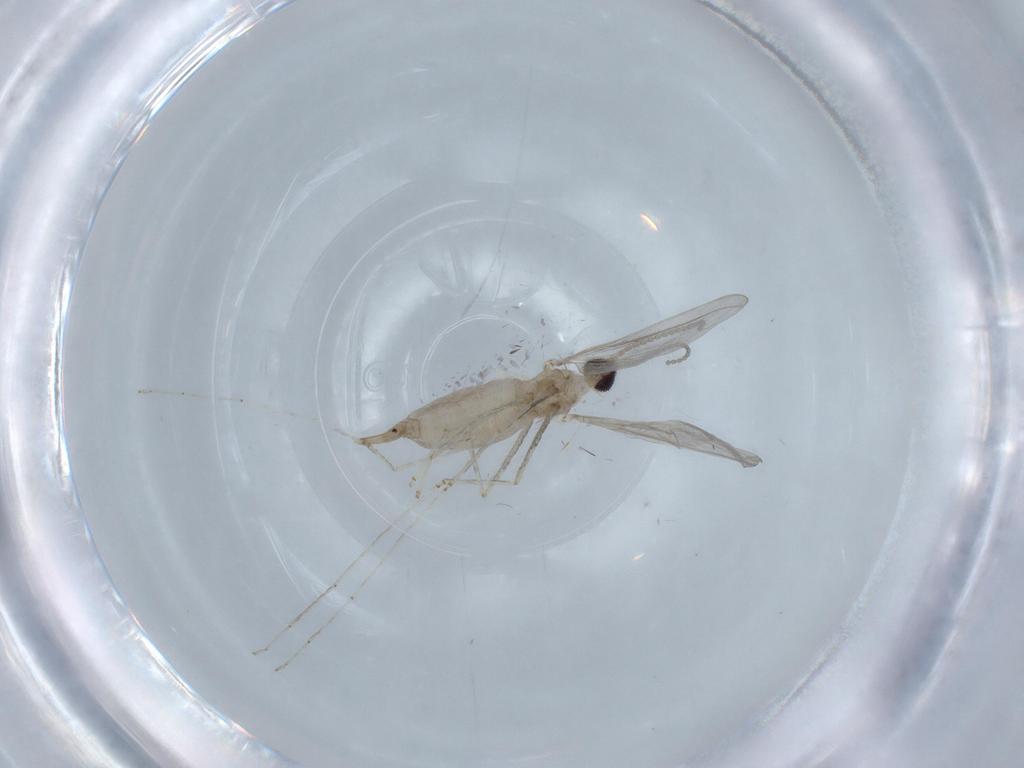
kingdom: Animalia
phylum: Arthropoda
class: Insecta
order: Diptera
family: Cecidomyiidae
